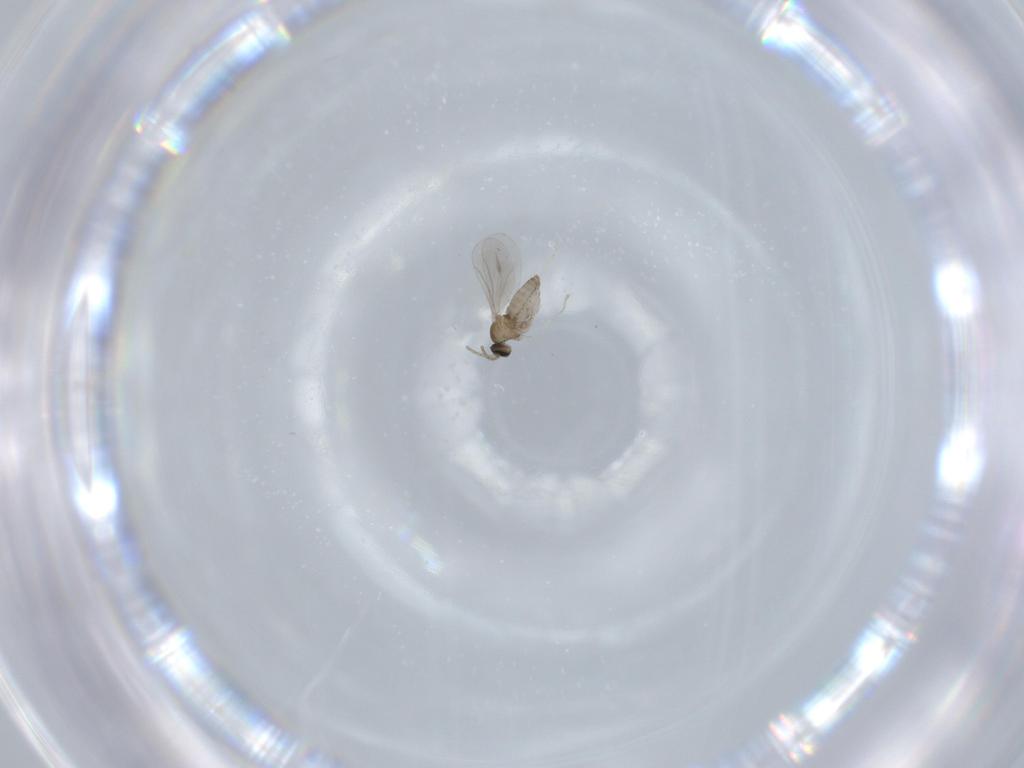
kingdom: Animalia
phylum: Arthropoda
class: Insecta
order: Diptera
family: Cecidomyiidae
